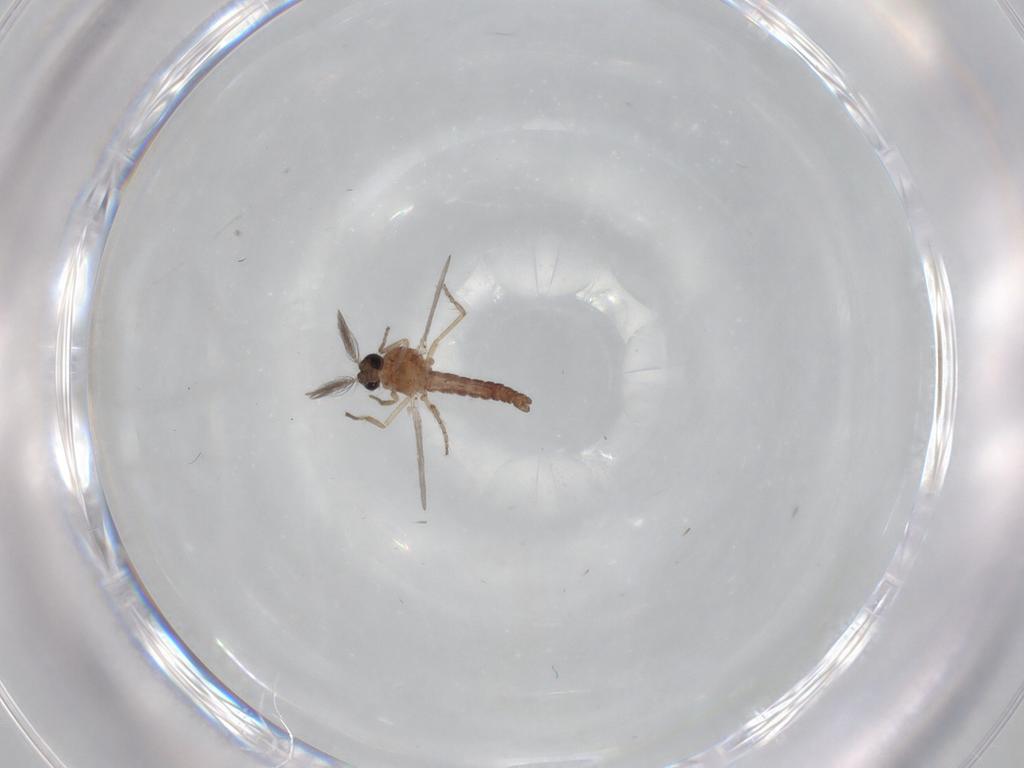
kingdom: Animalia
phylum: Arthropoda
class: Insecta
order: Diptera
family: Ceratopogonidae
